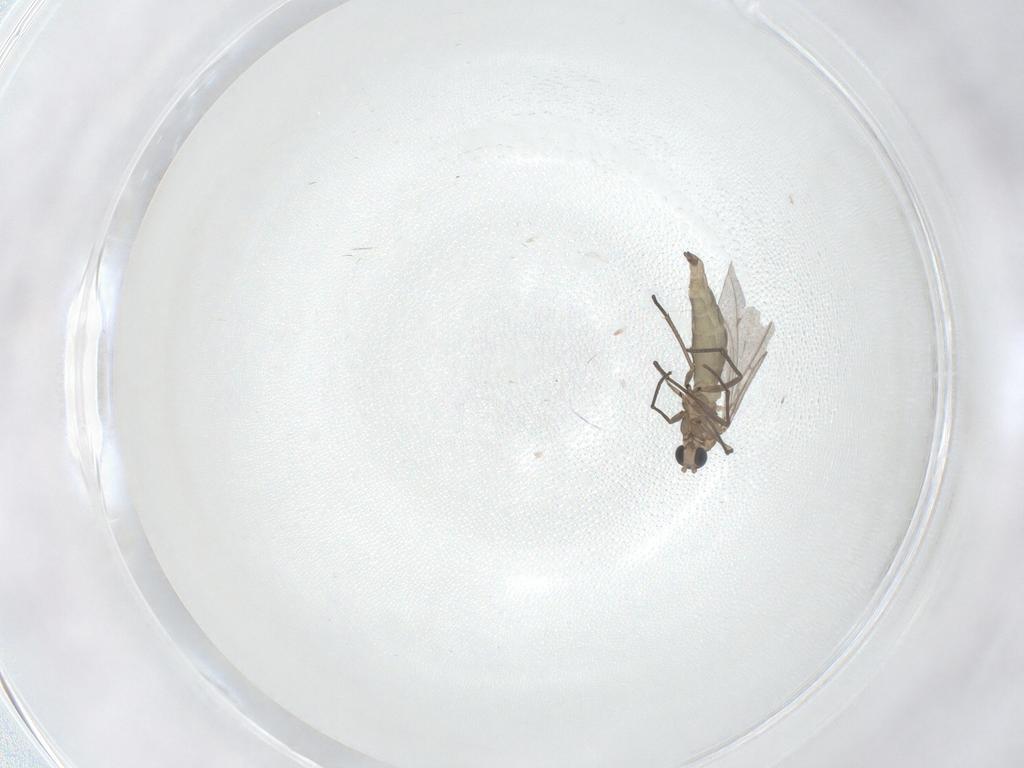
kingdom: Animalia
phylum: Arthropoda
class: Insecta
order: Diptera
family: Sciaridae
